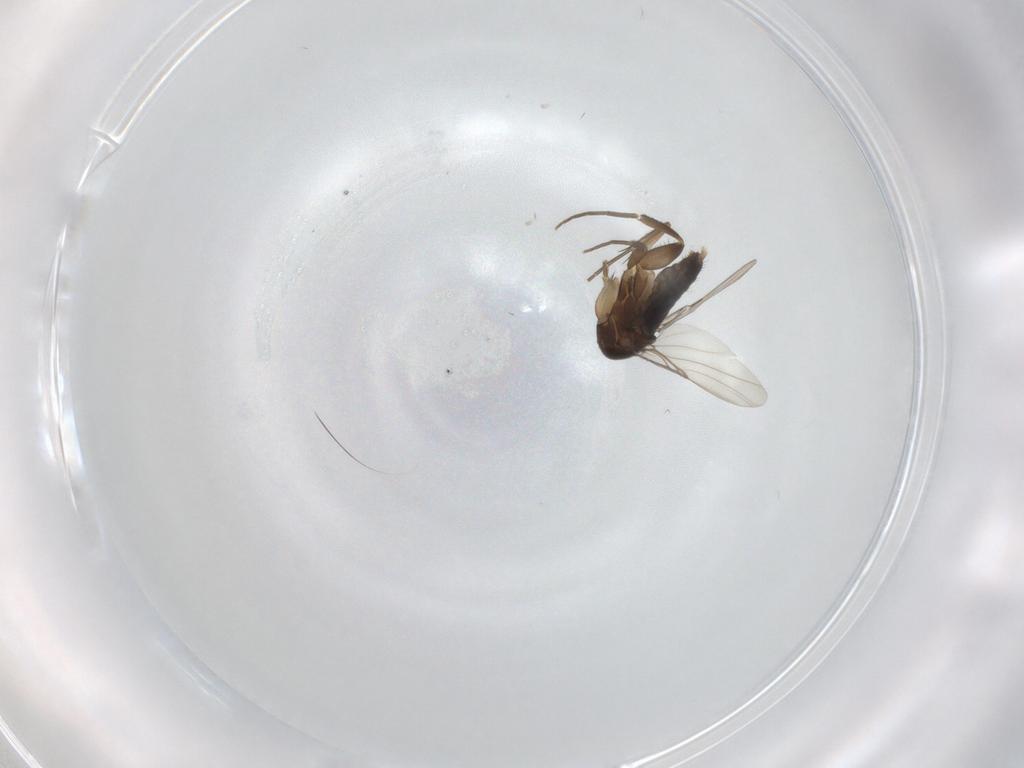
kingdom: Animalia
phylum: Arthropoda
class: Insecta
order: Diptera
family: Phoridae
